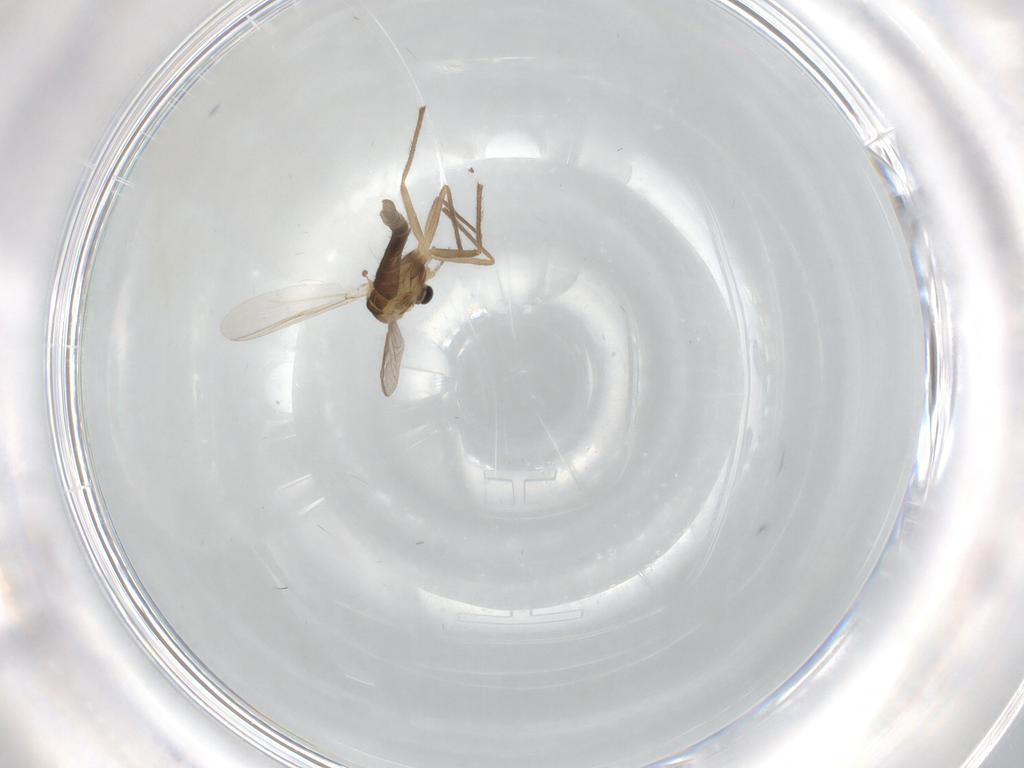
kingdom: Animalia
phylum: Arthropoda
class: Insecta
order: Diptera
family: Chironomidae
